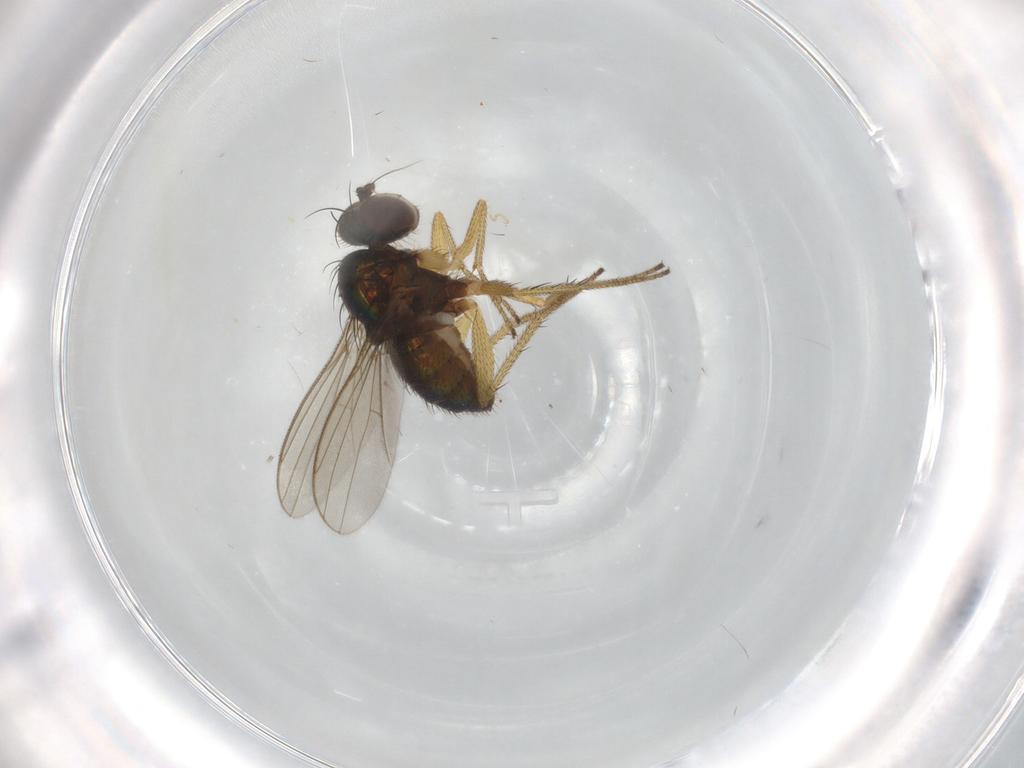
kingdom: Animalia
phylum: Arthropoda
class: Insecta
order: Diptera
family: Dolichopodidae
